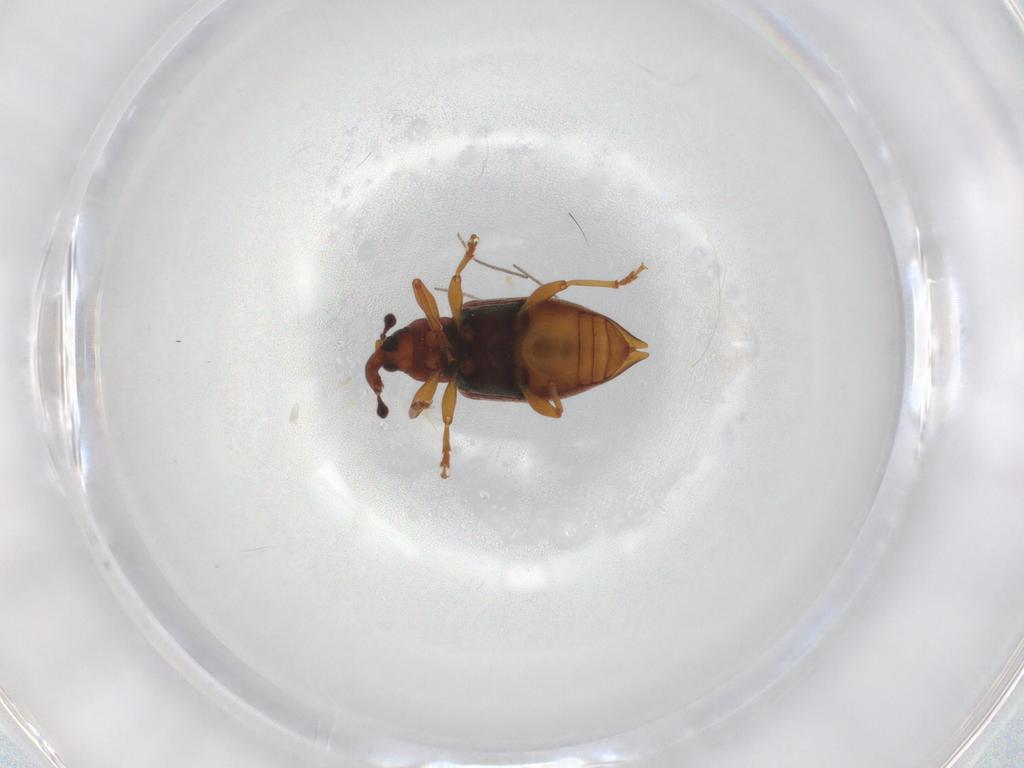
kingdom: Animalia
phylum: Arthropoda
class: Insecta
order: Coleoptera
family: Curculionidae
